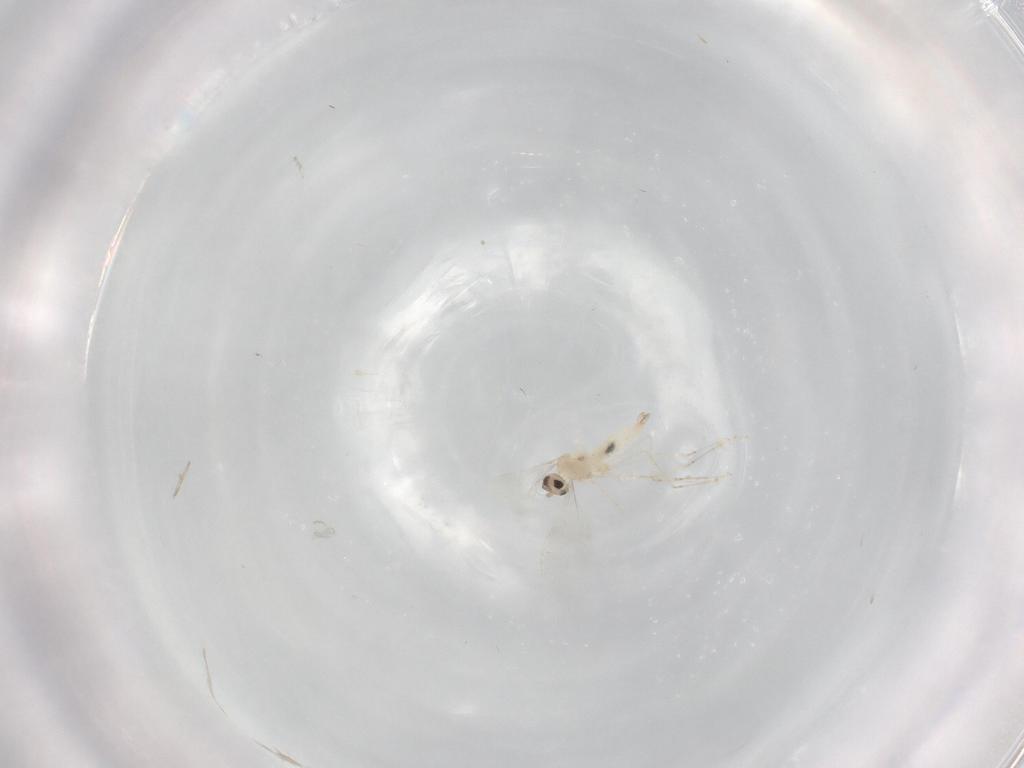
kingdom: Animalia
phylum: Arthropoda
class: Insecta
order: Diptera
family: Cecidomyiidae
